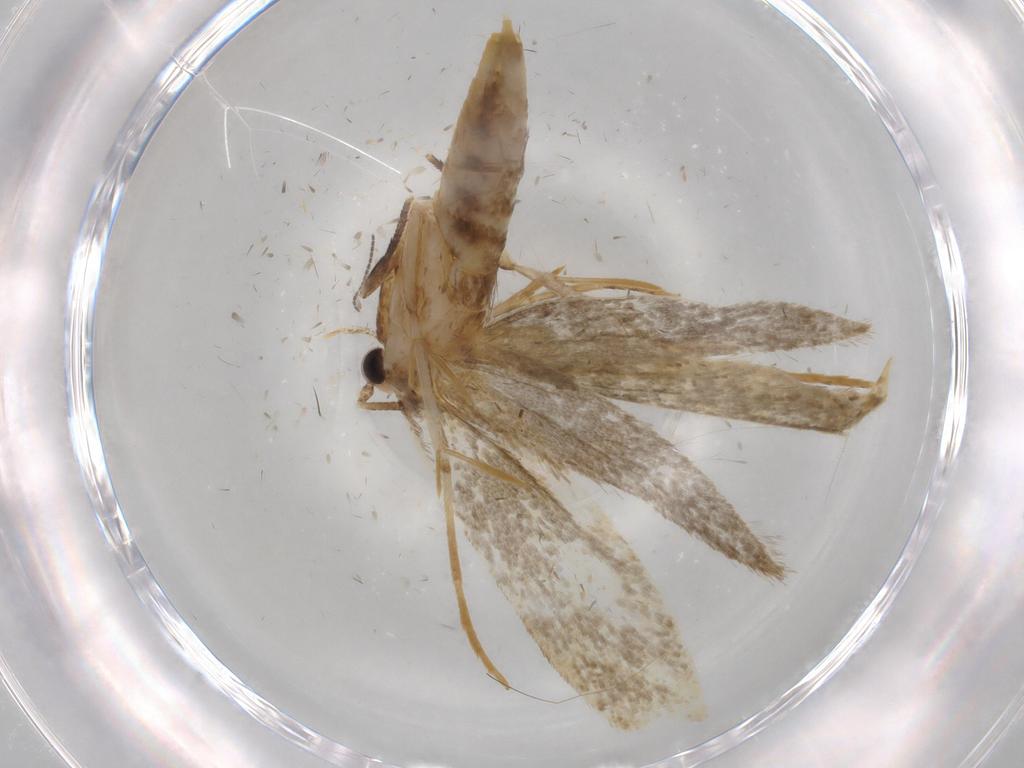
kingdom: Animalia
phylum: Arthropoda
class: Insecta
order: Lepidoptera
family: Tineidae
